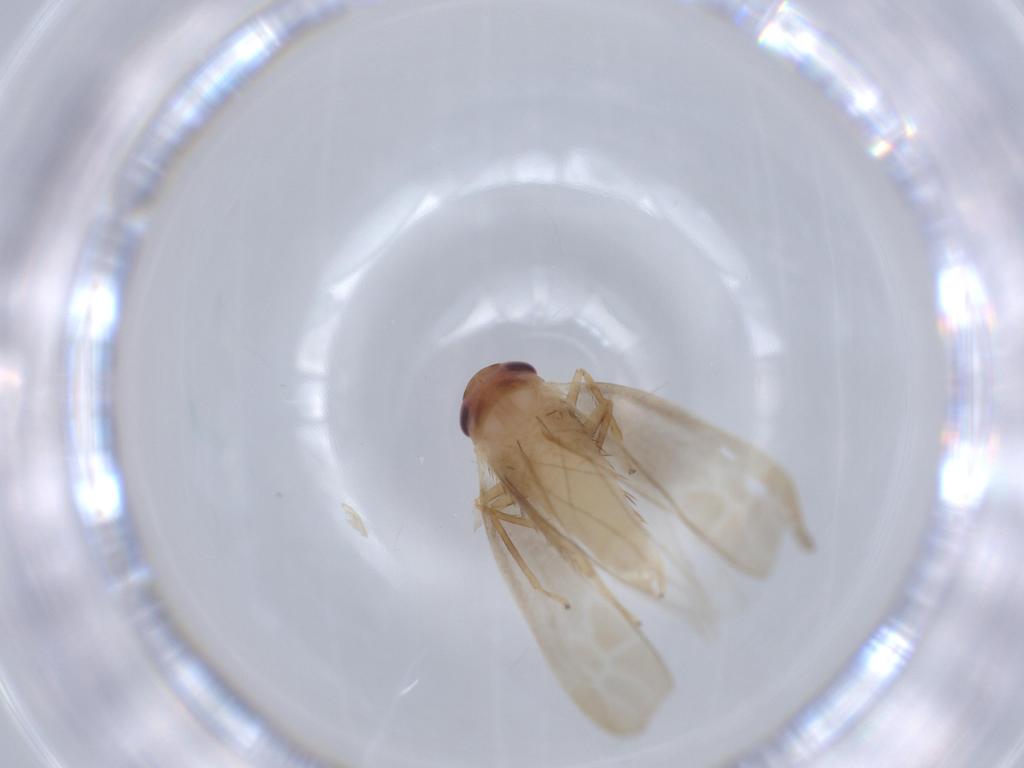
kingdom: Animalia
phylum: Arthropoda
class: Insecta
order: Hemiptera
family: Cicadellidae
